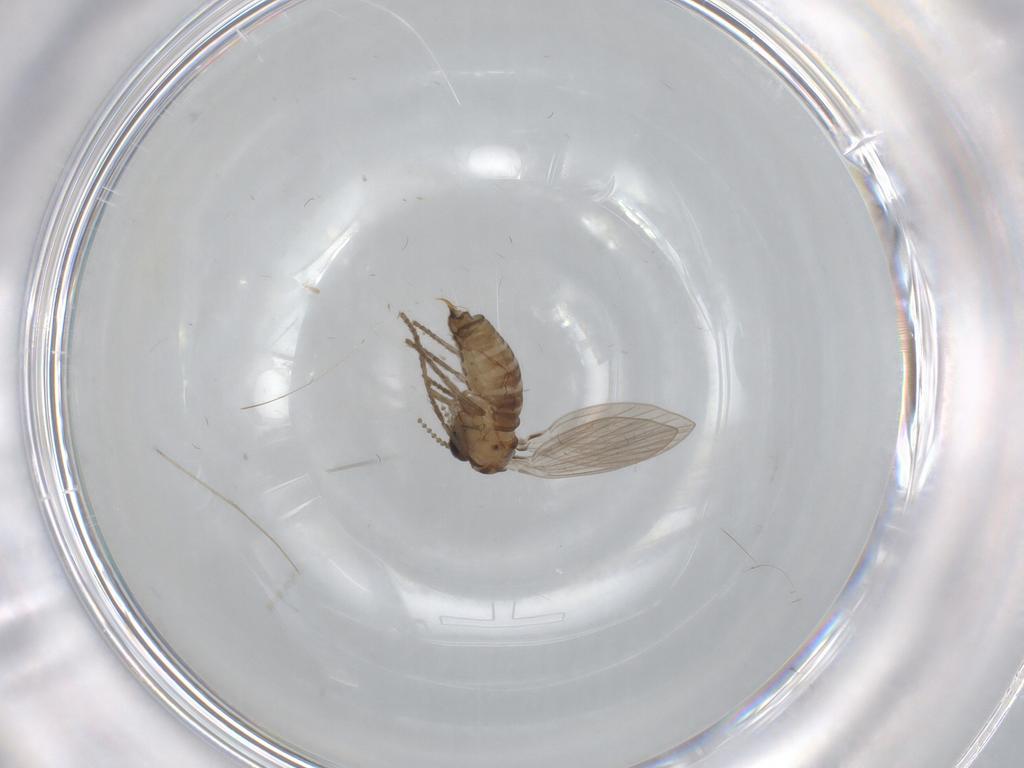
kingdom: Animalia
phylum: Arthropoda
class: Insecta
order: Diptera
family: Psychodidae
